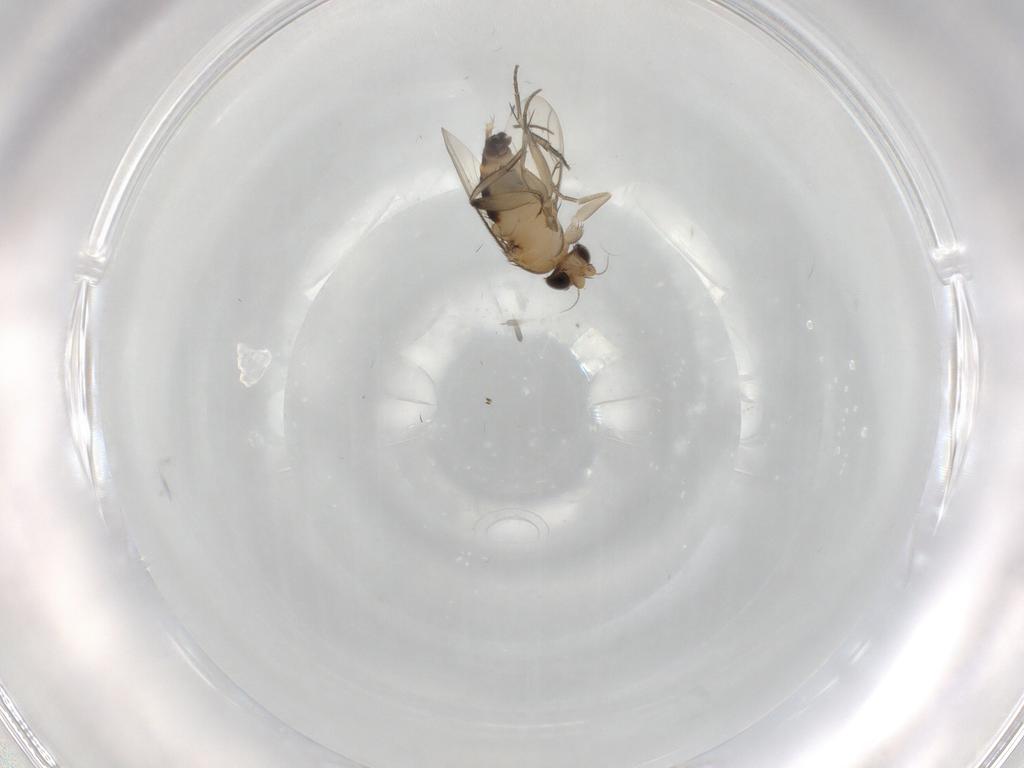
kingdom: Animalia
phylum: Arthropoda
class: Insecta
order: Diptera
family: Phoridae
